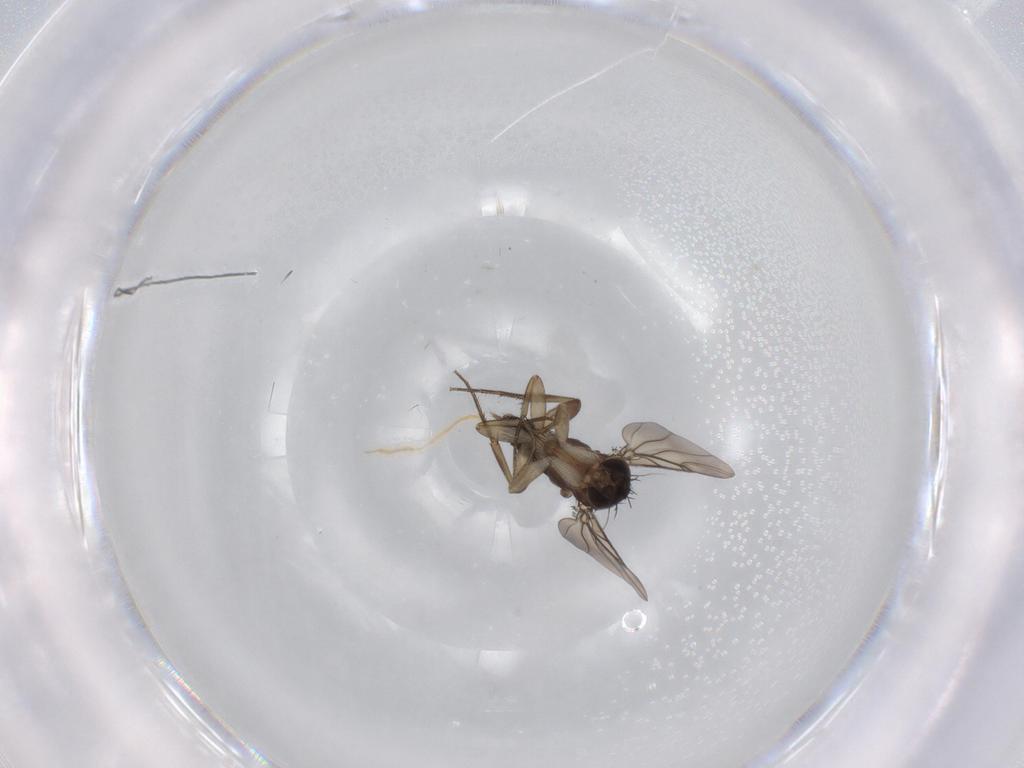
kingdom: Animalia
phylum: Arthropoda
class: Insecta
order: Diptera
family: Phoridae
